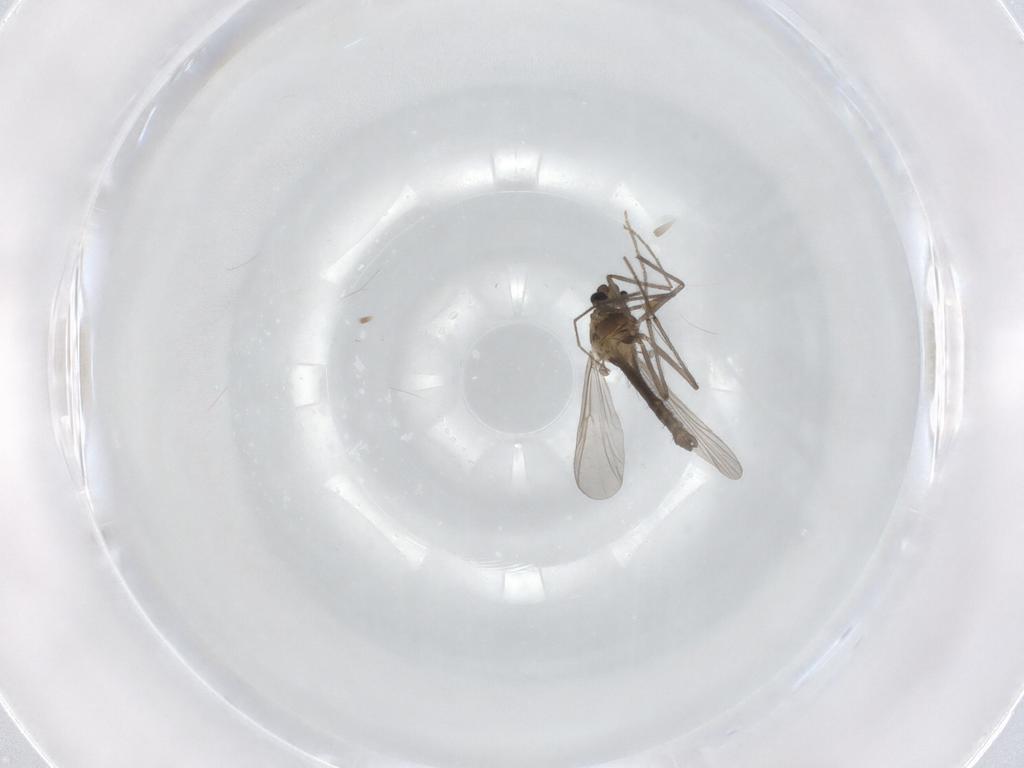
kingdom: Animalia
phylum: Arthropoda
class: Insecta
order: Diptera
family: Chironomidae
